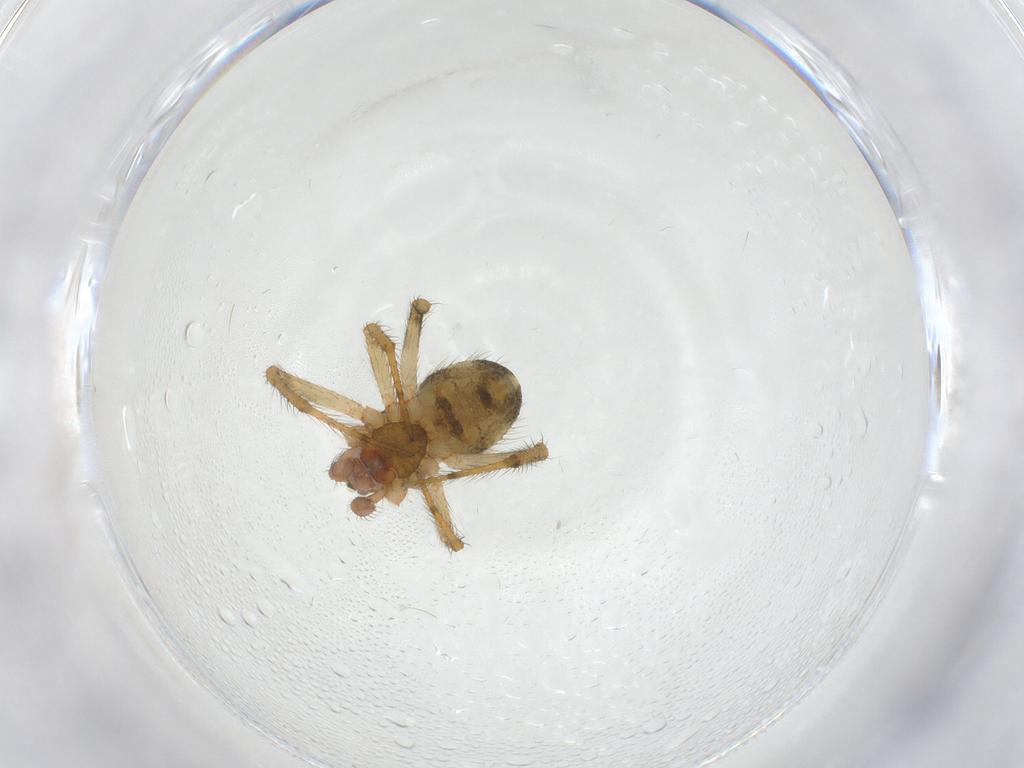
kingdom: Animalia
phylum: Arthropoda
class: Arachnida
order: Araneae
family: Theridiidae
